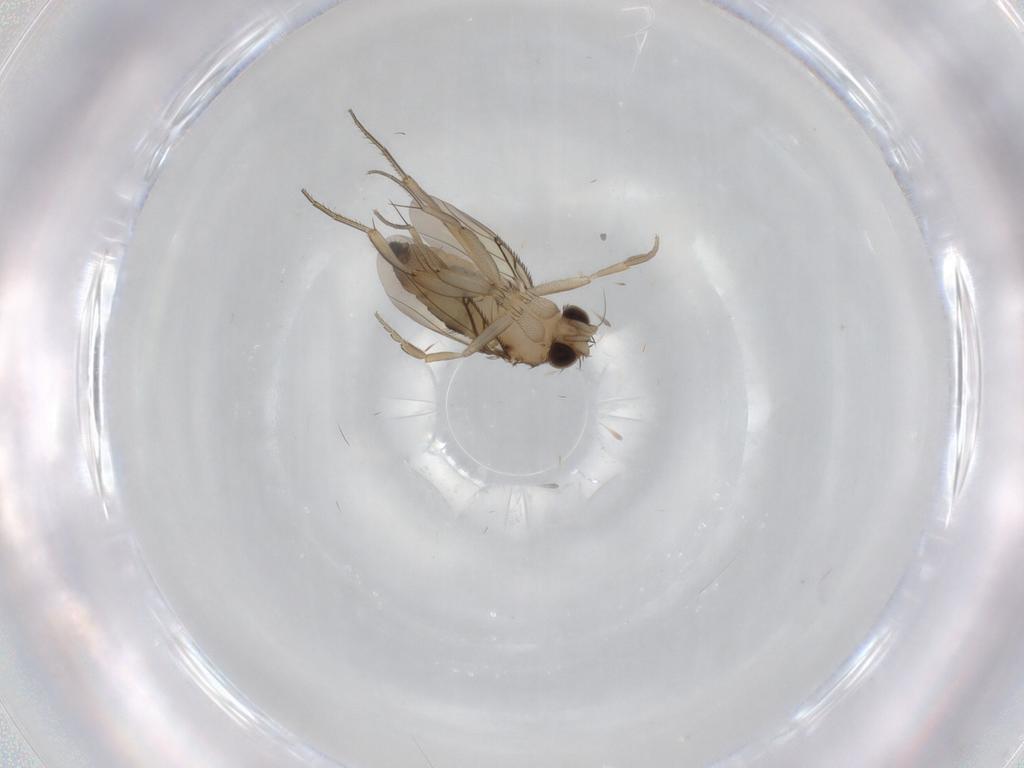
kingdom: Animalia
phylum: Arthropoda
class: Insecta
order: Diptera
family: Phoridae
